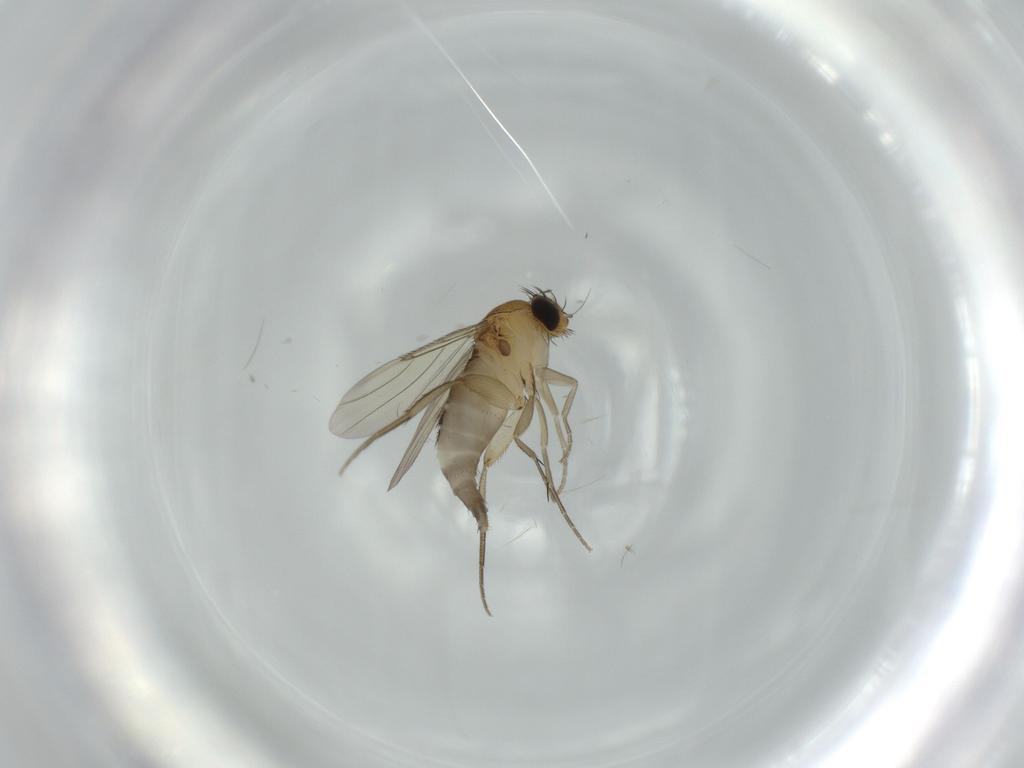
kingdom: Animalia
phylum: Arthropoda
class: Insecta
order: Diptera
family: Phoridae
